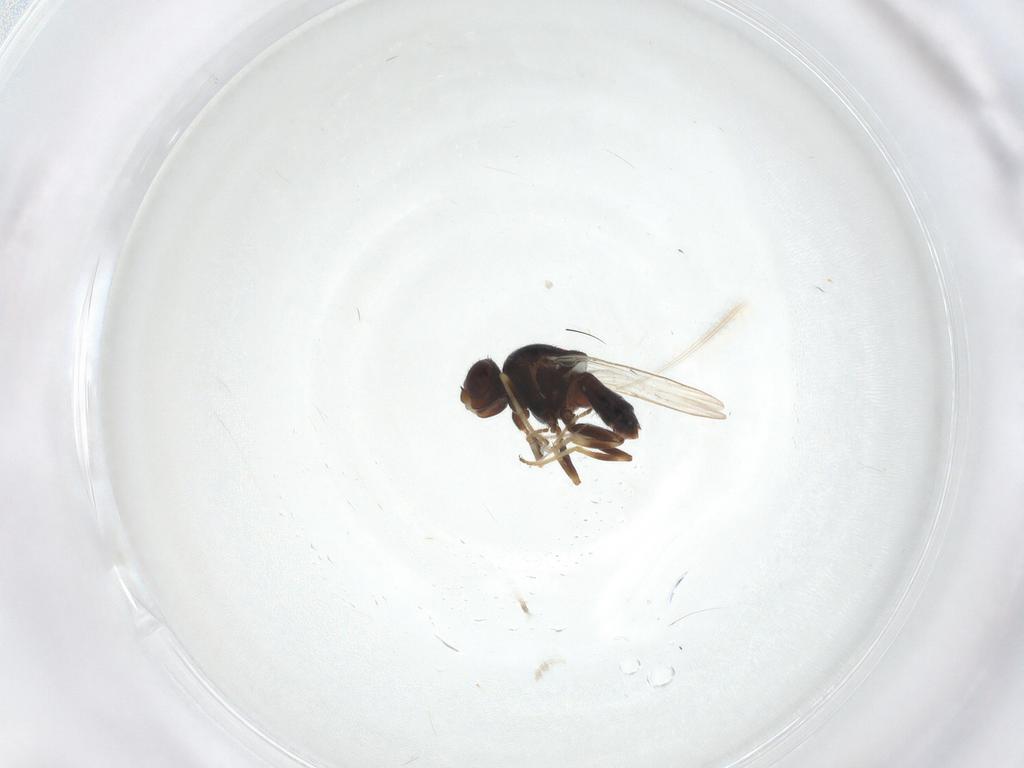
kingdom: Animalia
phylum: Arthropoda
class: Insecta
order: Diptera
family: Chloropidae
